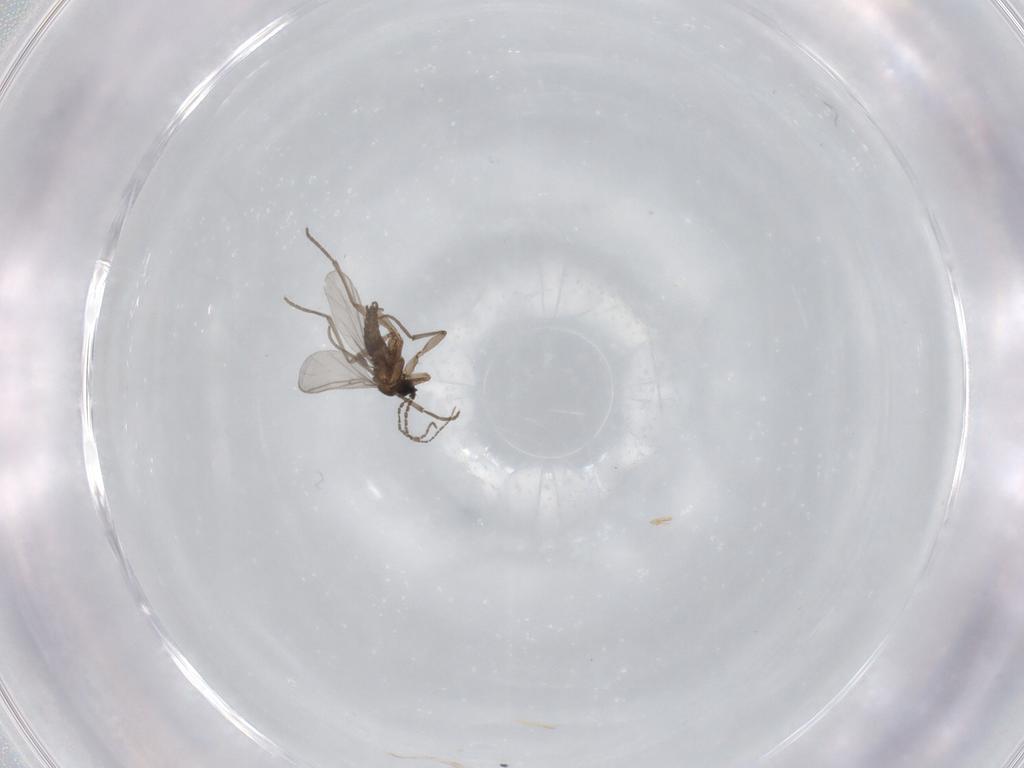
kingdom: Animalia
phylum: Arthropoda
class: Insecta
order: Diptera
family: Sciaridae
